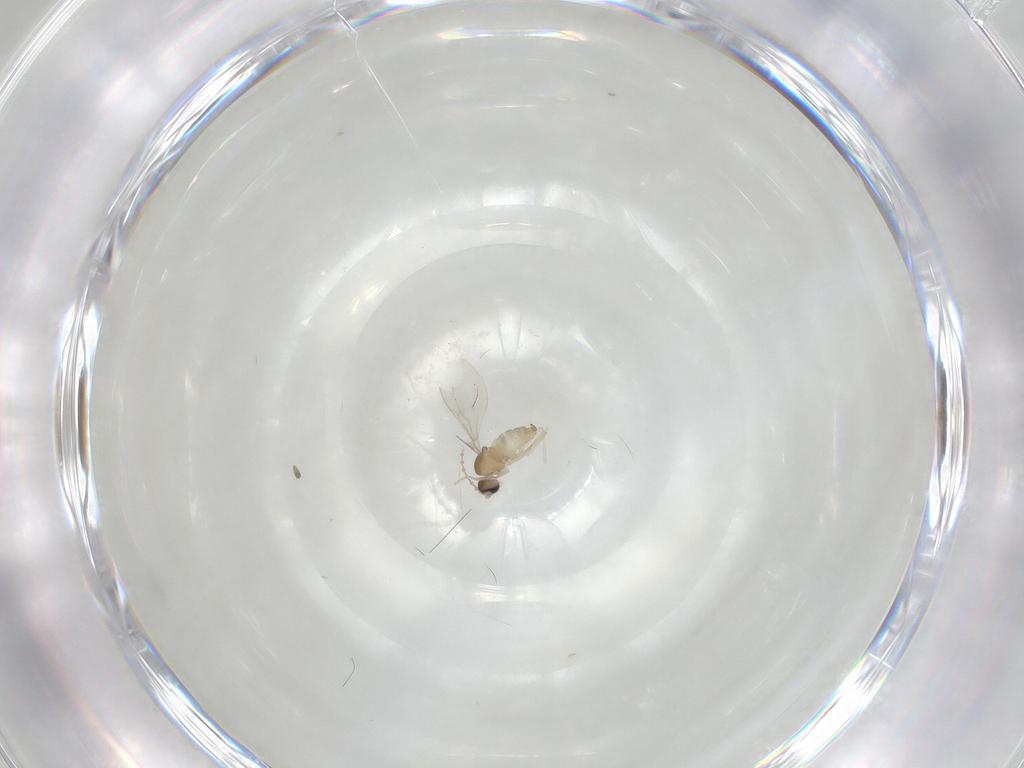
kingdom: Animalia
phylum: Arthropoda
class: Insecta
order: Diptera
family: Cecidomyiidae
